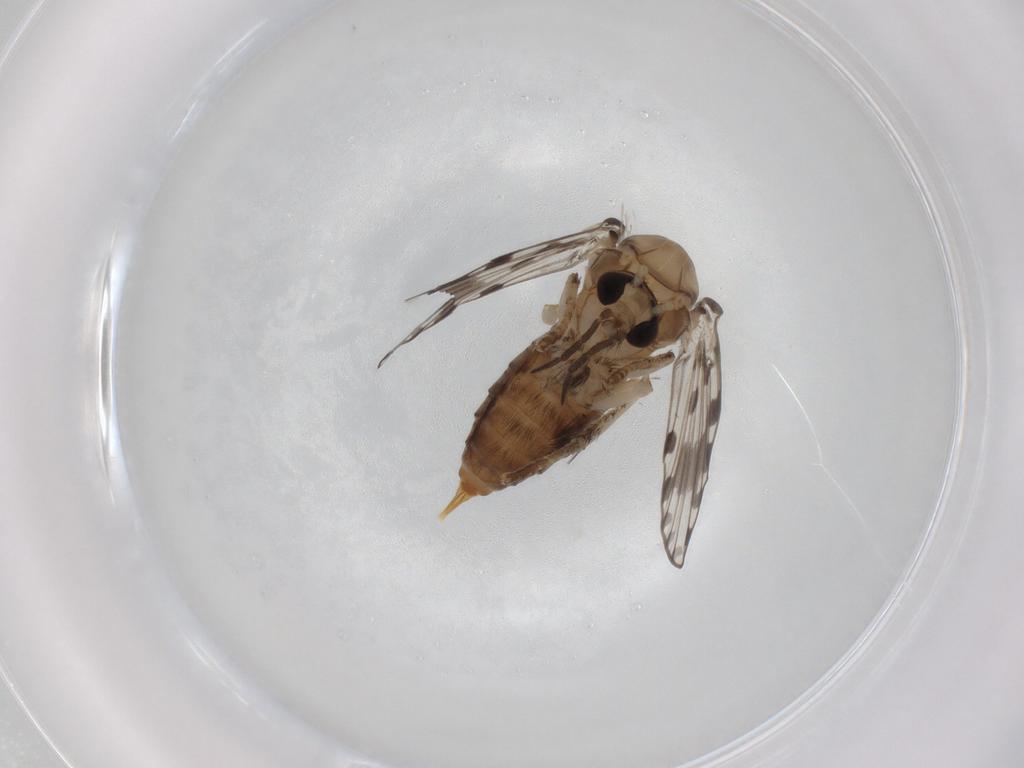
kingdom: Animalia
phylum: Arthropoda
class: Insecta
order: Diptera
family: Psychodidae
